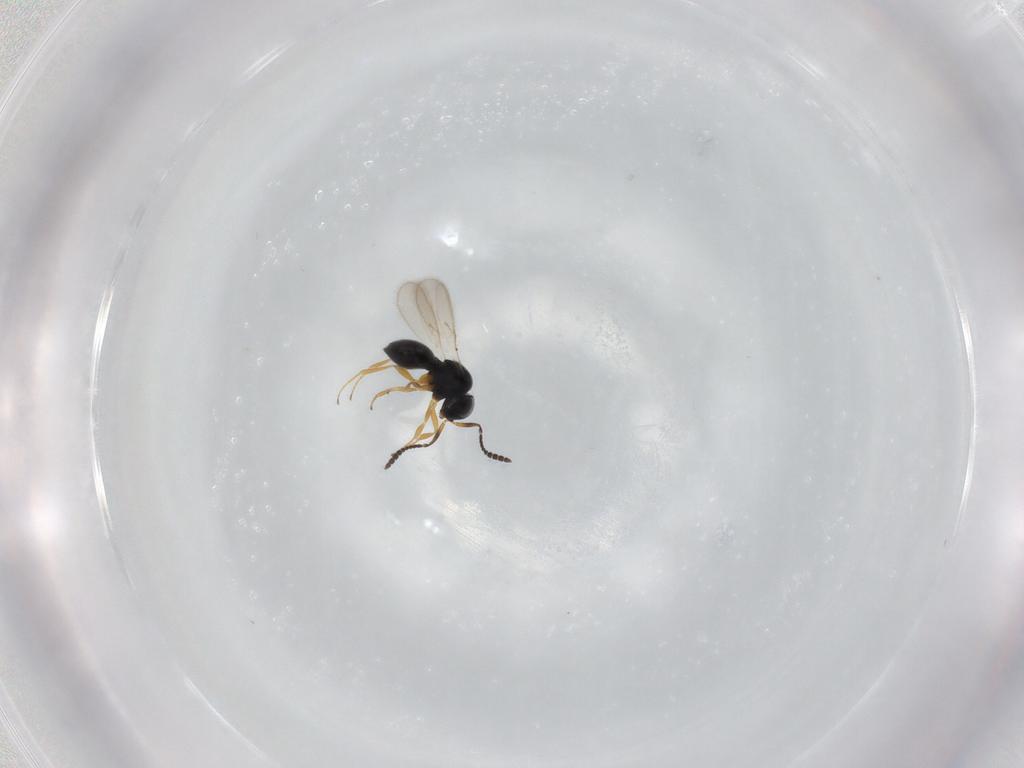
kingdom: Animalia
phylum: Arthropoda
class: Insecta
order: Hymenoptera
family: Scelionidae
